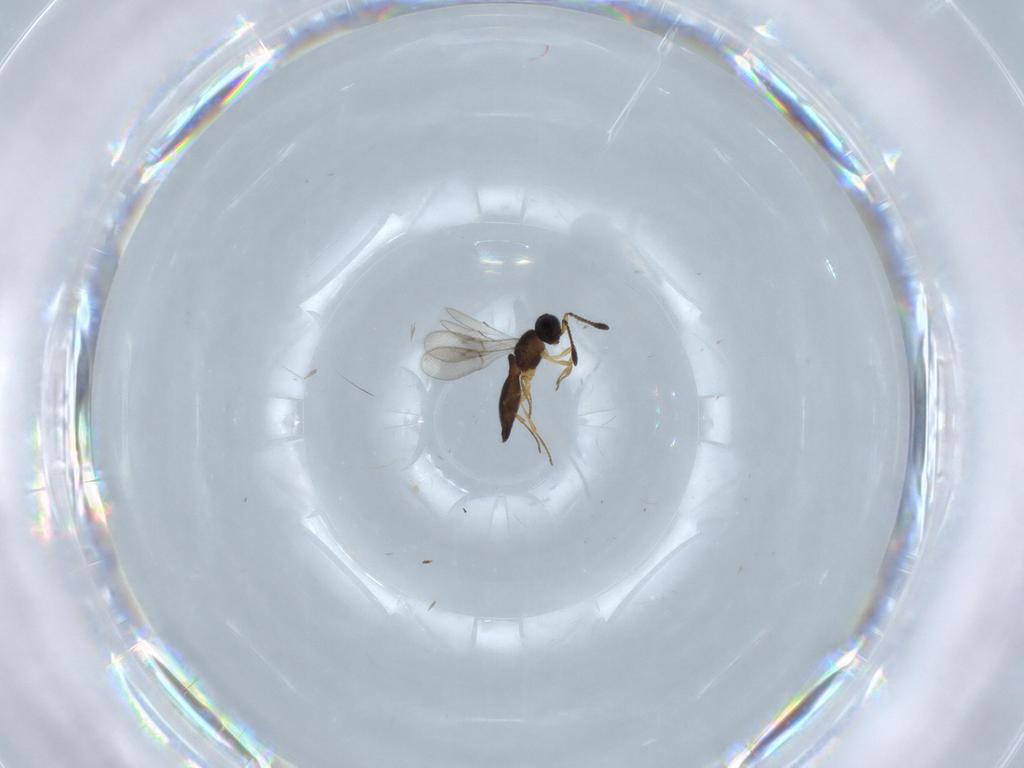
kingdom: Animalia
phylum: Arthropoda
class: Insecta
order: Hymenoptera
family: Scelionidae
